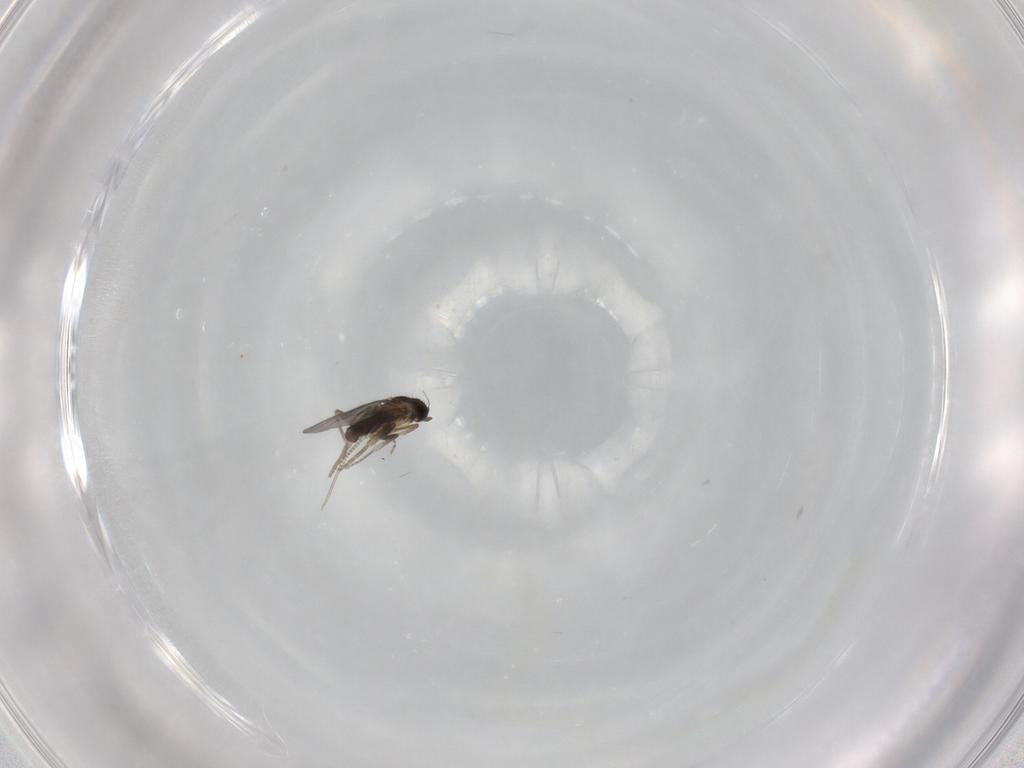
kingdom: Animalia
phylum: Arthropoda
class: Insecta
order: Diptera
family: Chironomidae
